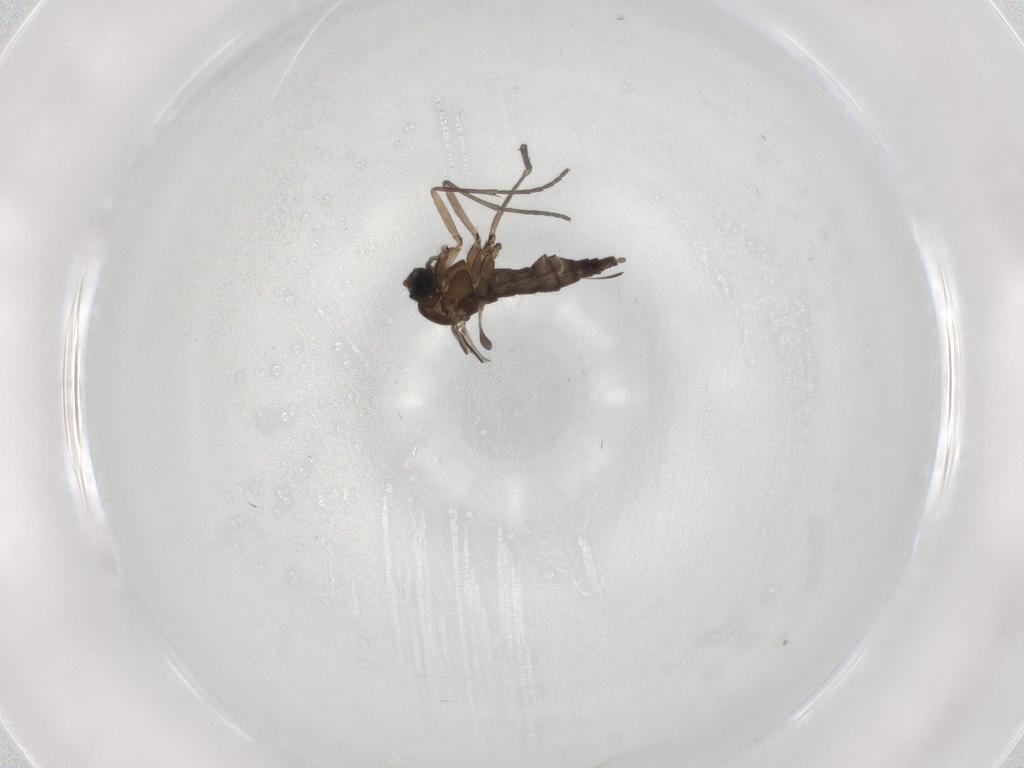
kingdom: Animalia
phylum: Arthropoda
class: Insecta
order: Diptera
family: Sciaridae
